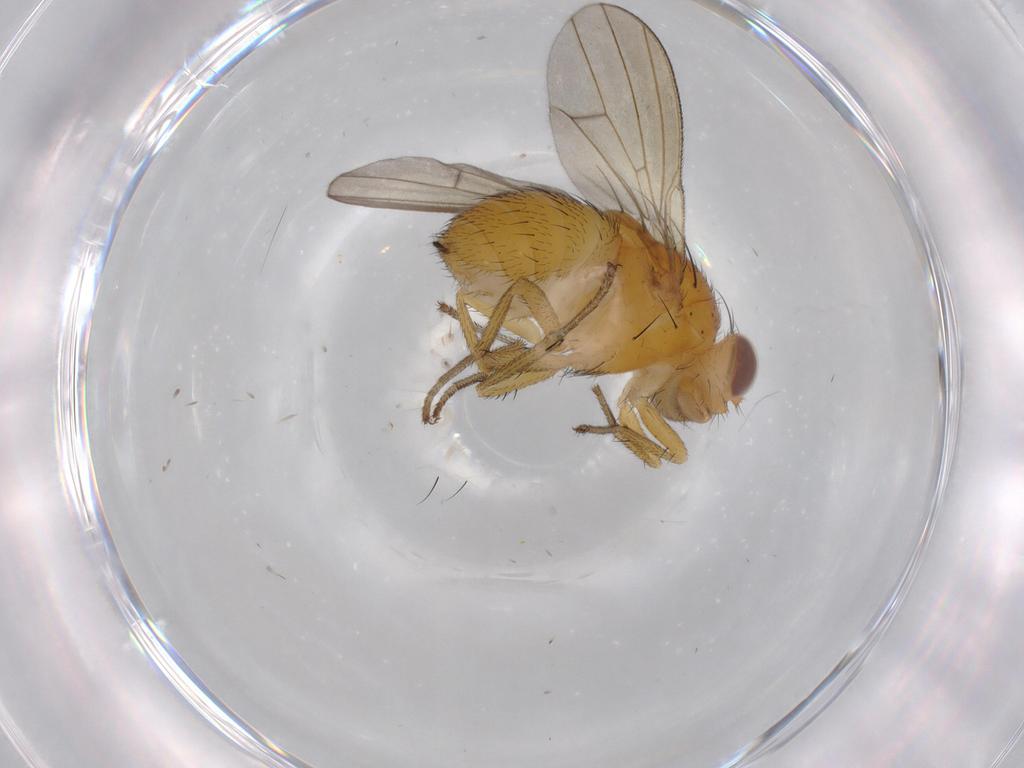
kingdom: Animalia
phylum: Arthropoda
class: Insecta
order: Diptera
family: Lauxaniidae
